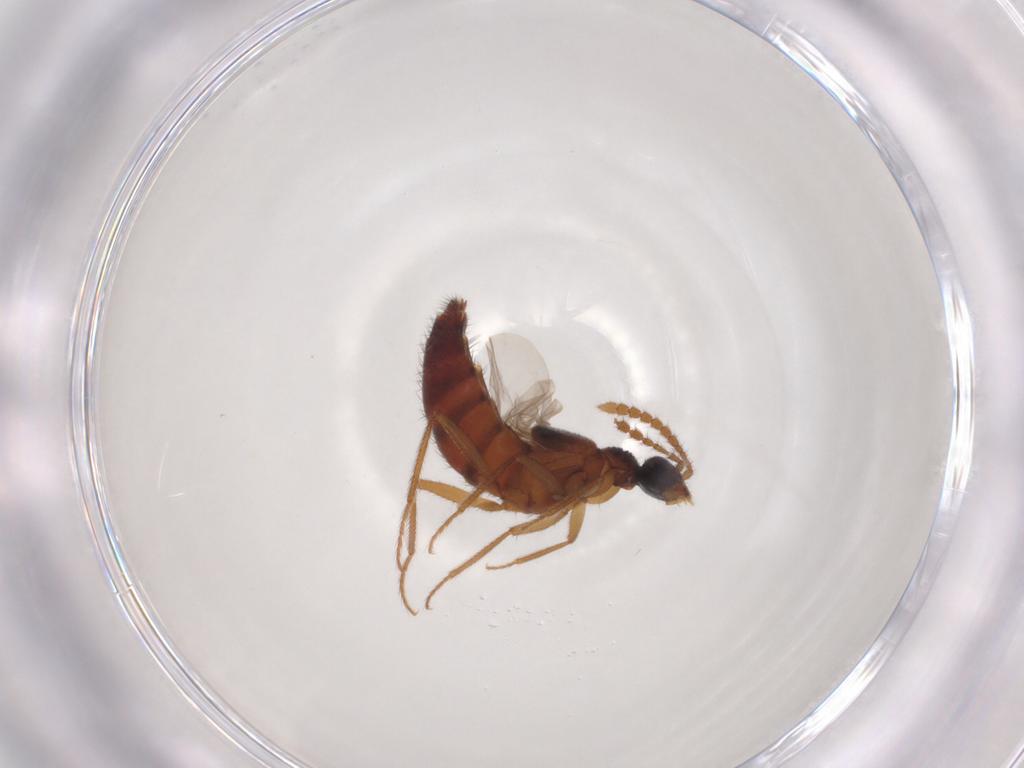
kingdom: Animalia
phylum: Arthropoda
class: Insecta
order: Coleoptera
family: Staphylinidae
